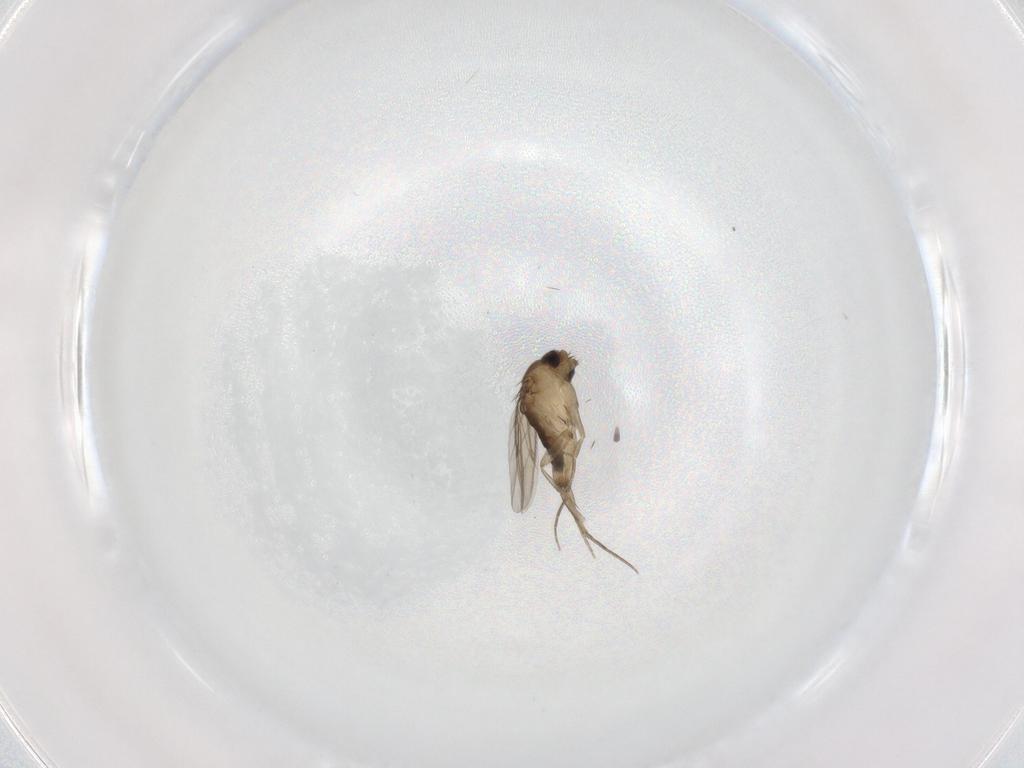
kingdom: Animalia
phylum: Arthropoda
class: Insecta
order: Diptera
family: Phoridae
